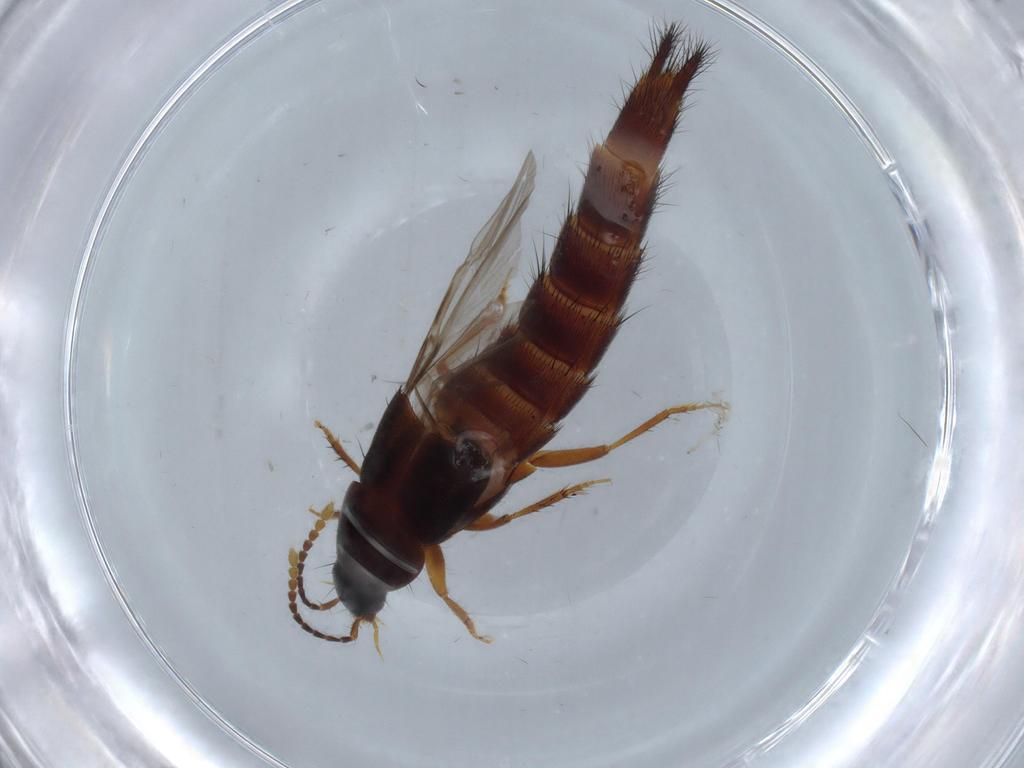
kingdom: Animalia
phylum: Arthropoda
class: Insecta
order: Coleoptera
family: Staphylinidae
